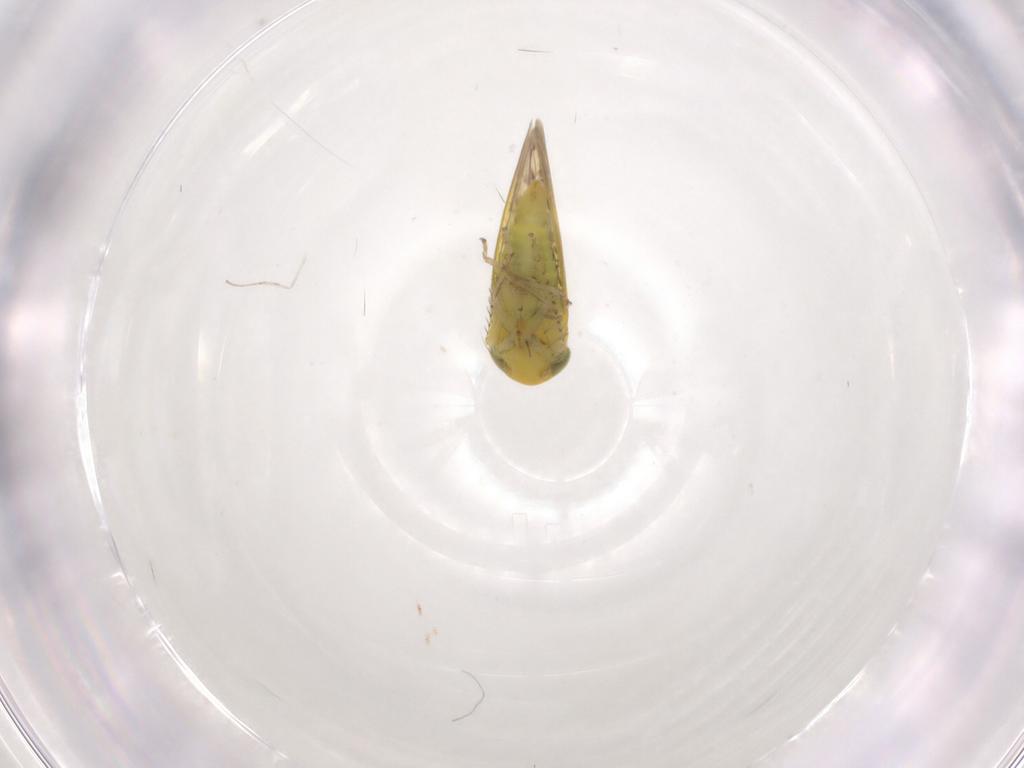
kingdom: Animalia
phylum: Arthropoda
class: Insecta
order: Hemiptera
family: Cicadellidae
